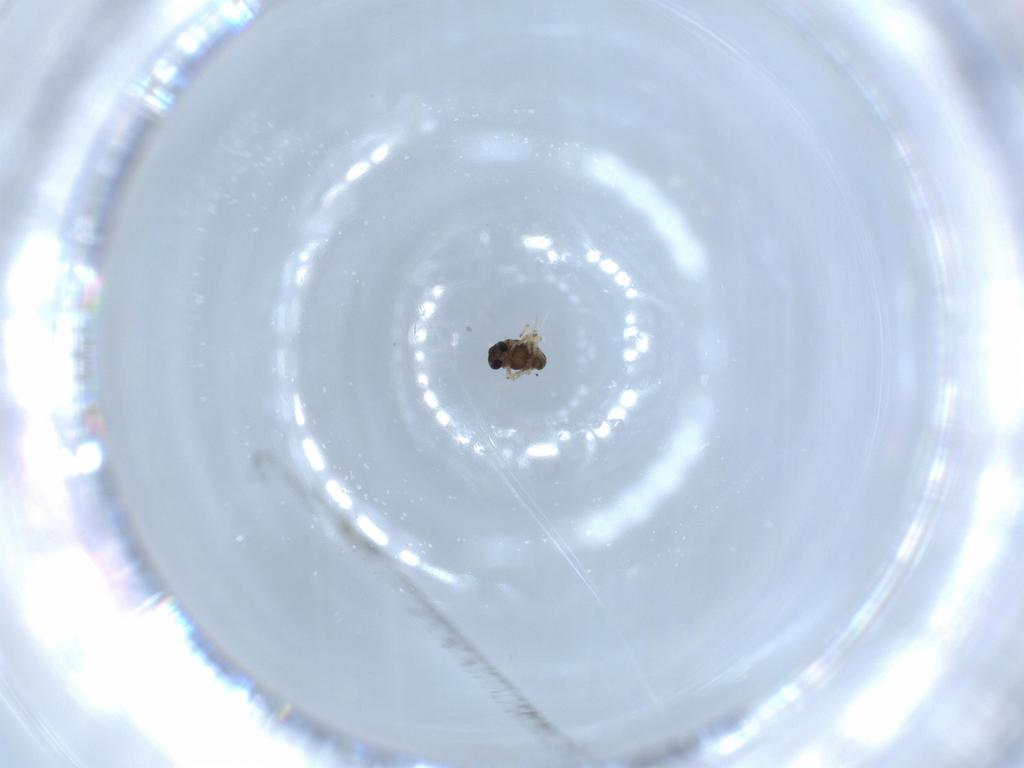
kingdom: Animalia
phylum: Arthropoda
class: Insecta
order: Diptera
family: Chironomidae
